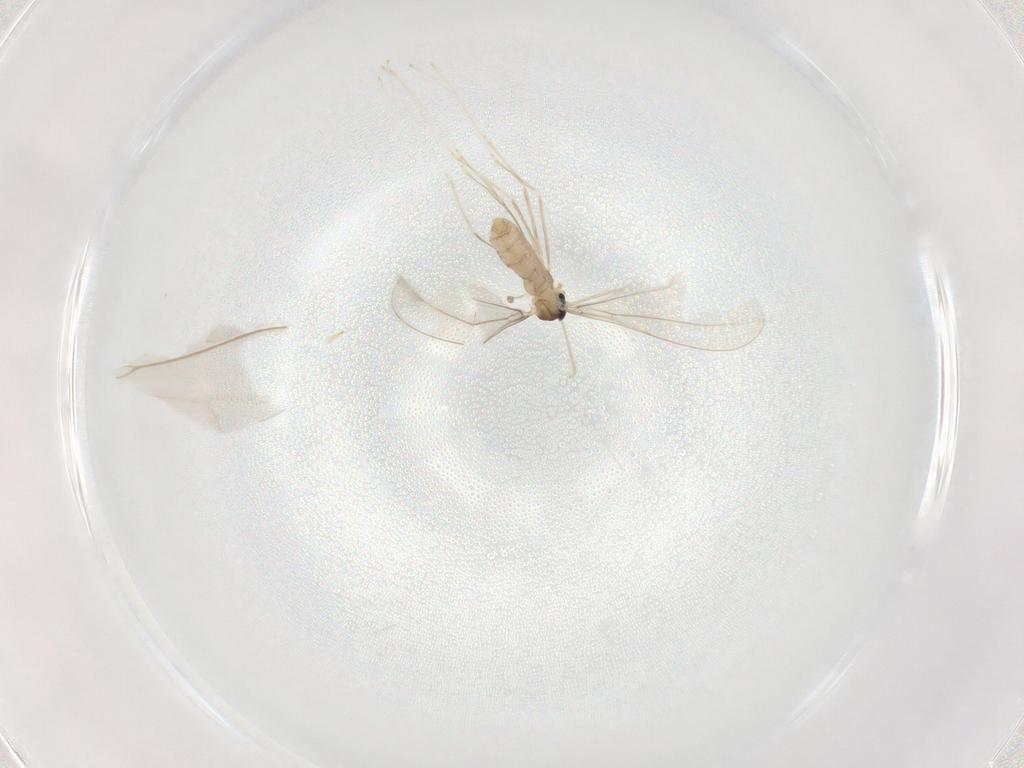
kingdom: Animalia
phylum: Arthropoda
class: Insecta
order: Diptera
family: Cecidomyiidae
